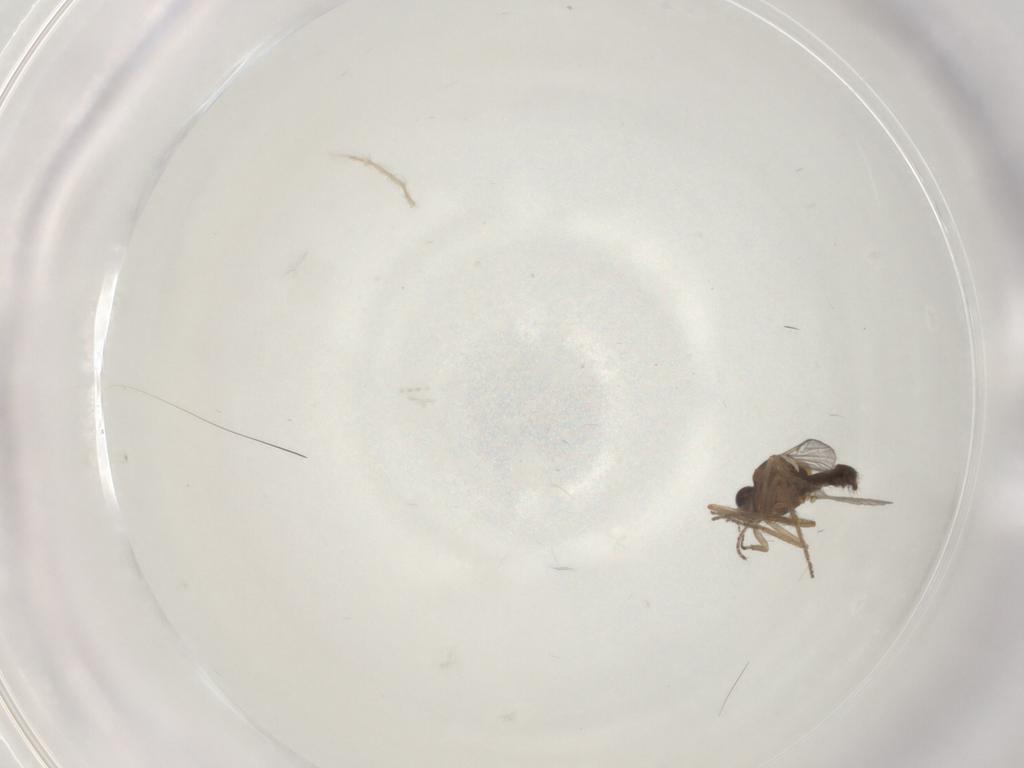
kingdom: Animalia
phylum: Arthropoda
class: Insecta
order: Diptera
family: Ceratopogonidae
